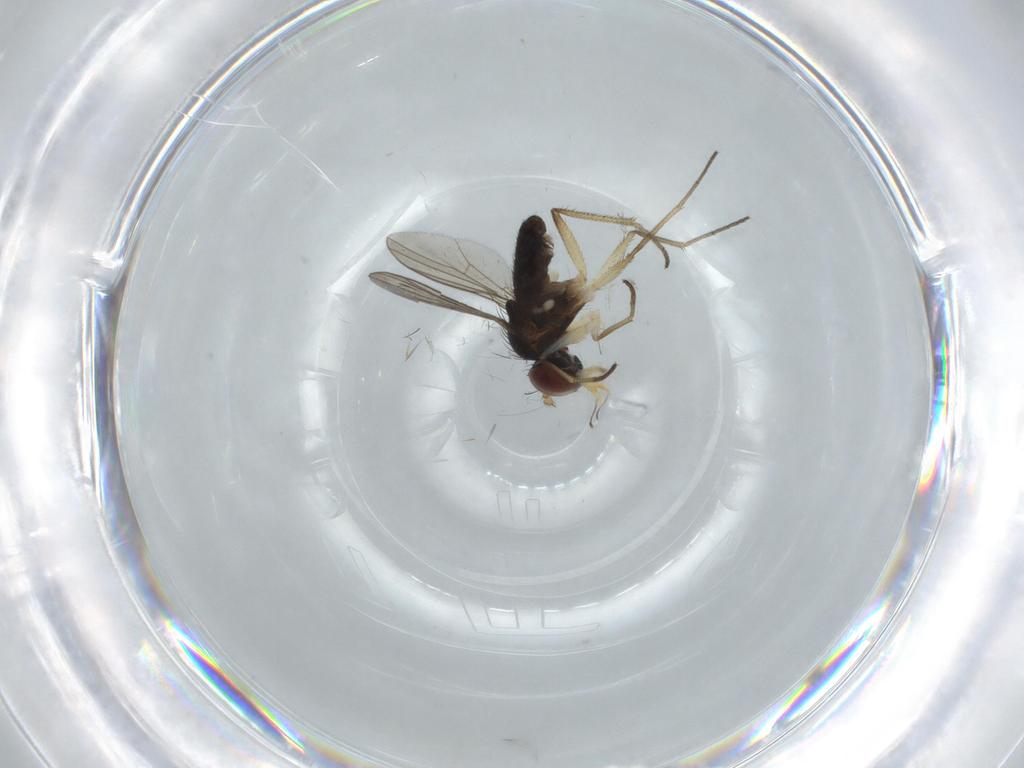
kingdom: Animalia
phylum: Arthropoda
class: Insecta
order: Diptera
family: Dolichopodidae
